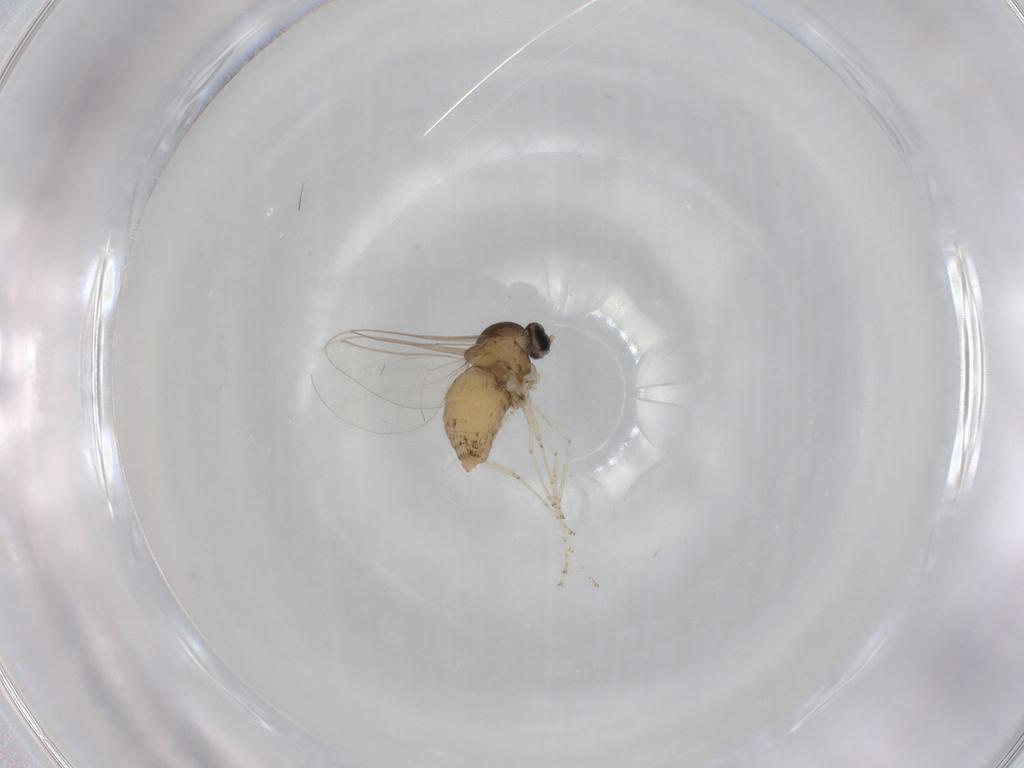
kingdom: Animalia
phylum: Arthropoda
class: Insecta
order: Diptera
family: Cecidomyiidae
